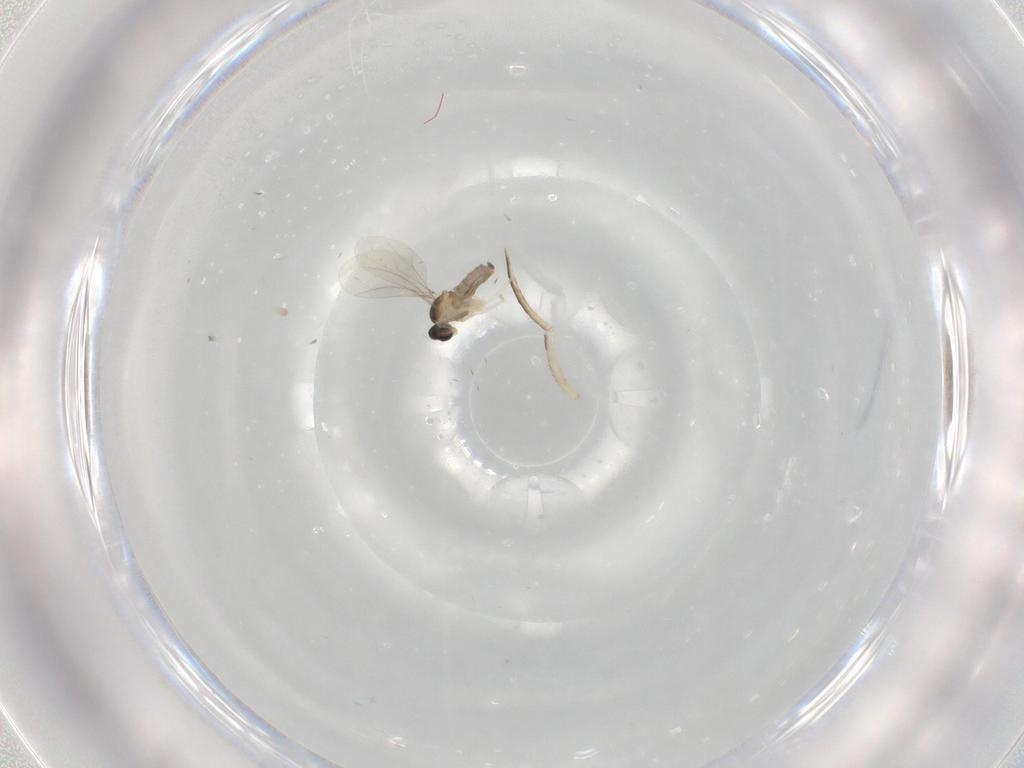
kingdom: Animalia
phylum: Arthropoda
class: Insecta
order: Diptera
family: Cecidomyiidae
